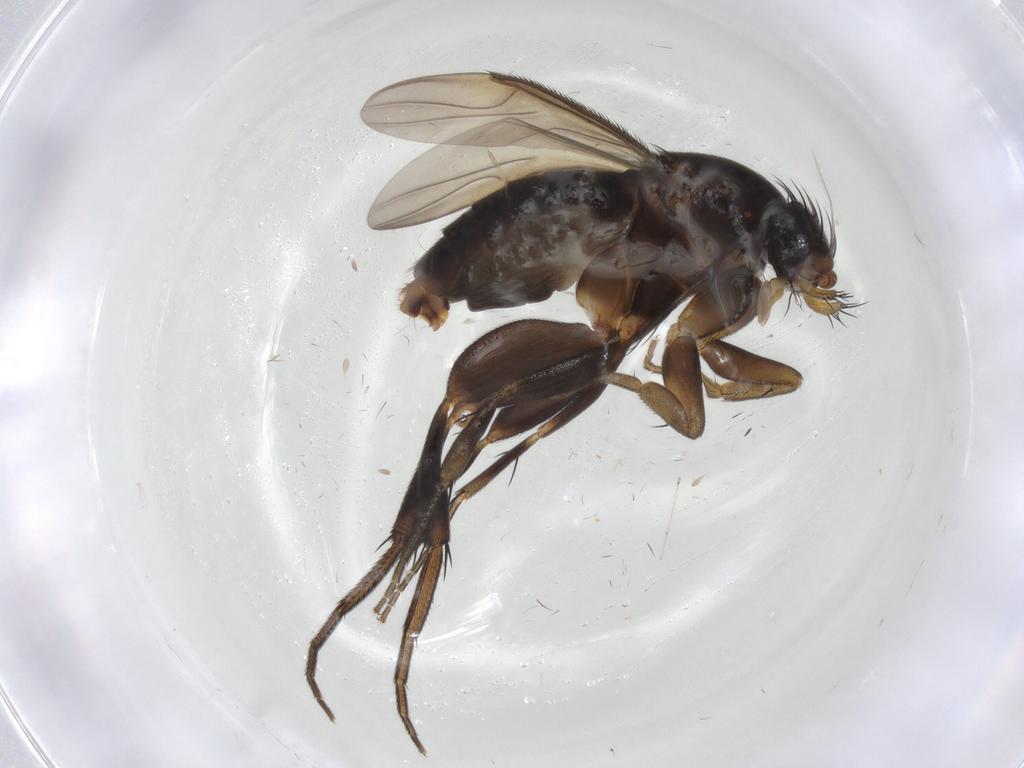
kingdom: Animalia
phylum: Arthropoda
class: Insecta
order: Diptera
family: Phoridae
